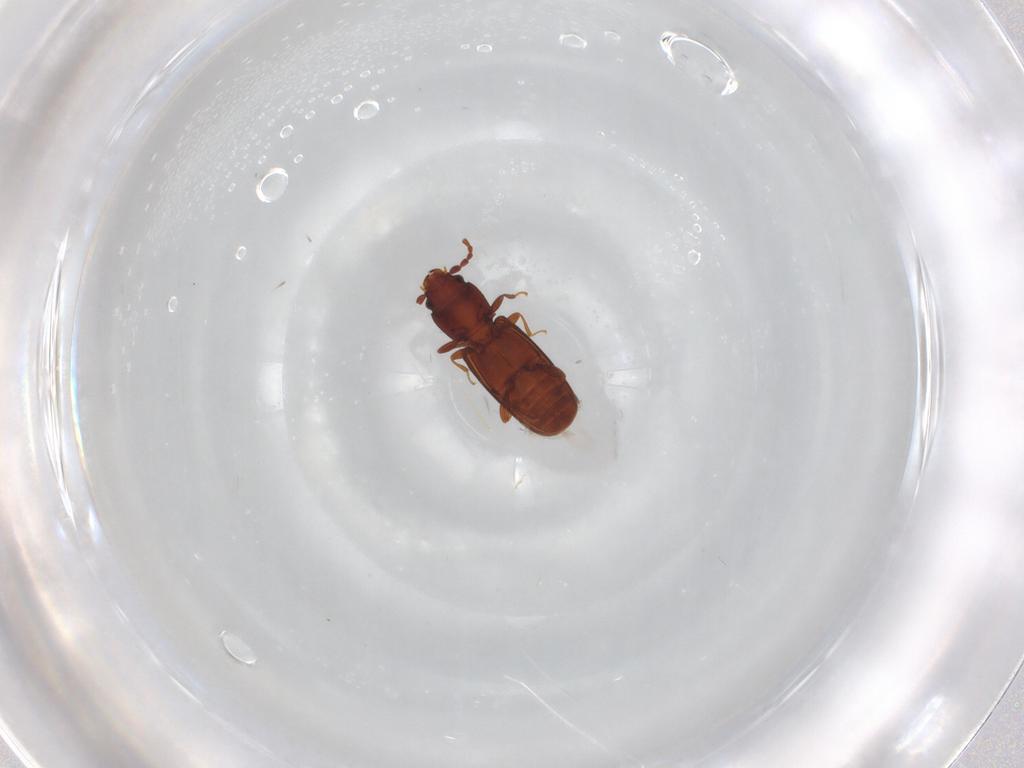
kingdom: Animalia
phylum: Arthropoda
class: Insecta
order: Coleoptera
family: Laemophloeidae
